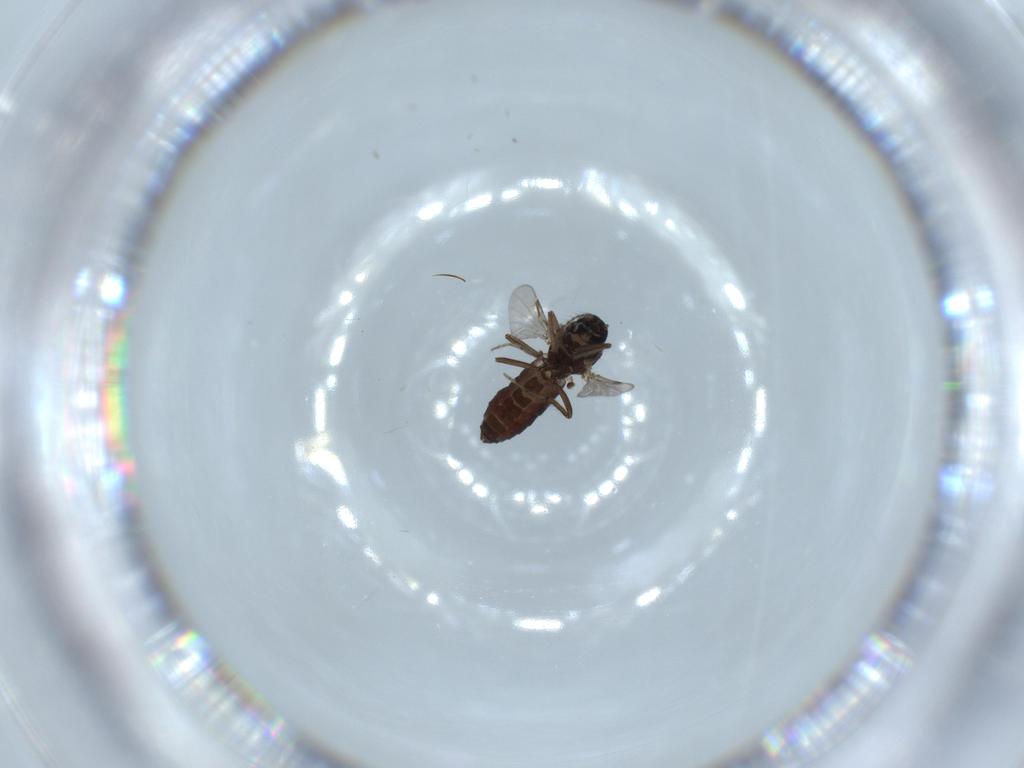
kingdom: Animalia
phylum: Arthropoda
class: Insecta
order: Diptera
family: Ceratopogonidae
